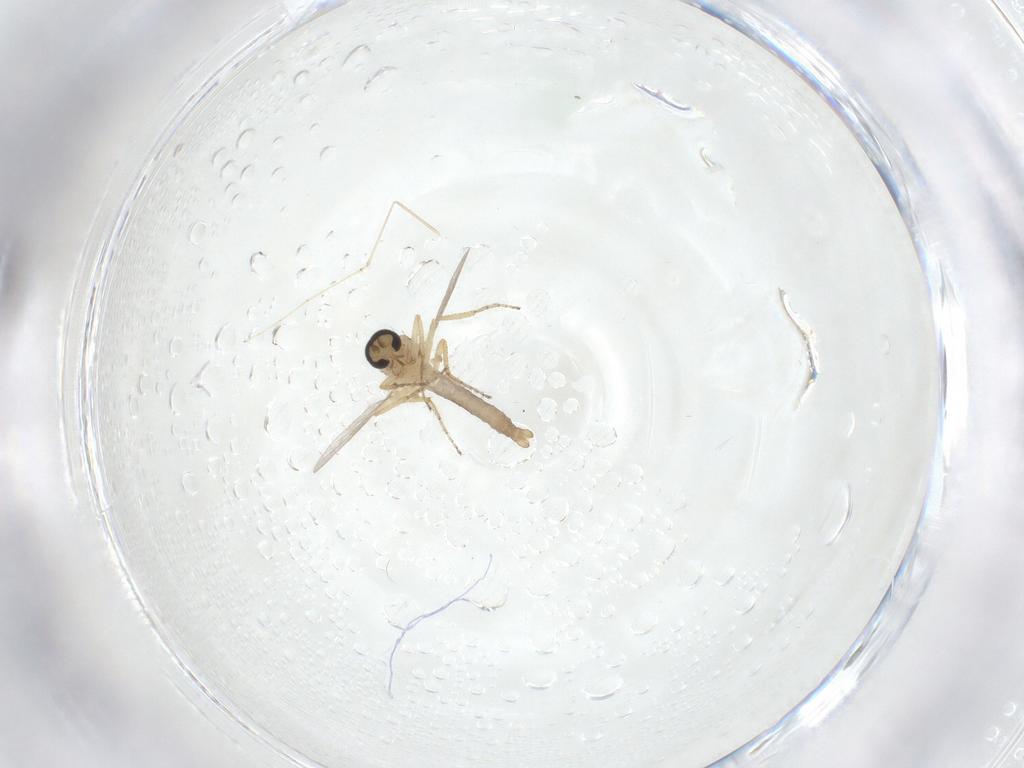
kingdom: Animalia
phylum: Arthropoda
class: Insecta
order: Diptera
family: Ceratopogonidae
